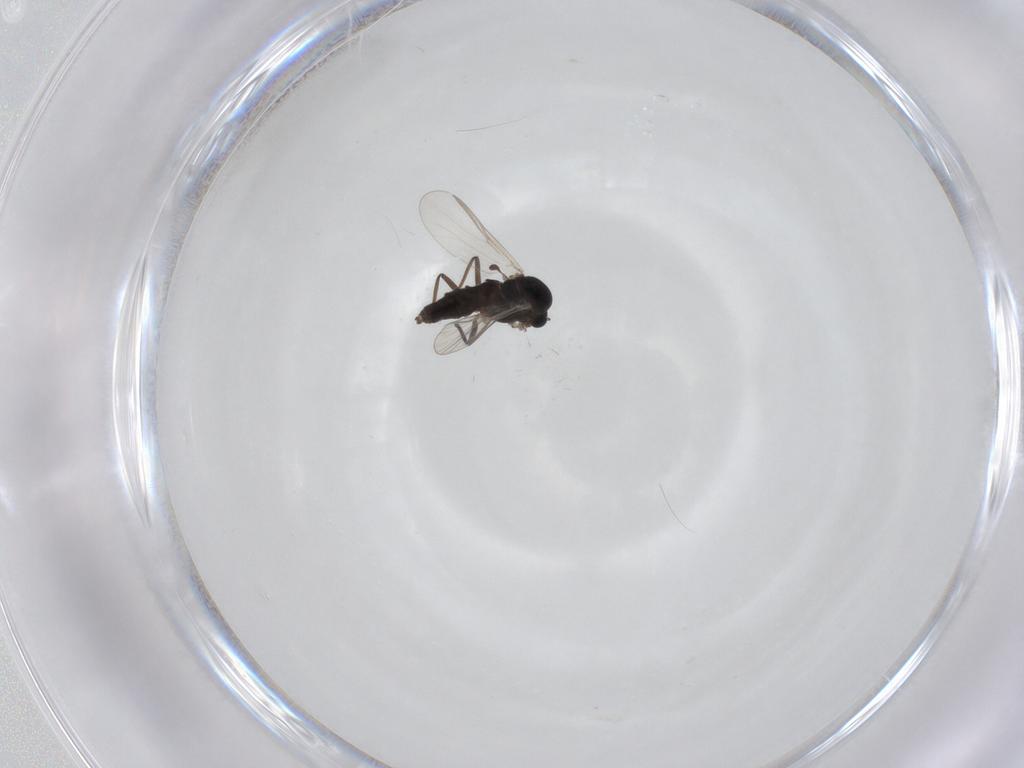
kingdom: Animalia
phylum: Arthropoda
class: Insecta
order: Diptera
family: Chironomidae
